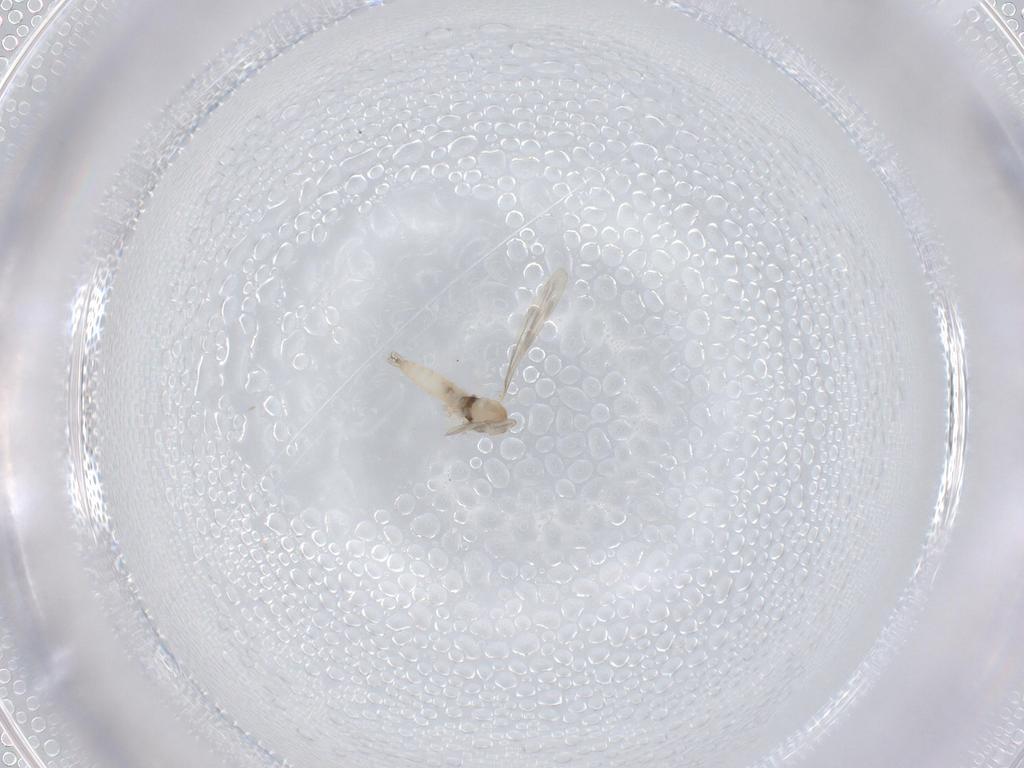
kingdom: Animalia
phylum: Arthropoda
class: Insecta
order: Diptera
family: Cecidomyiidae
